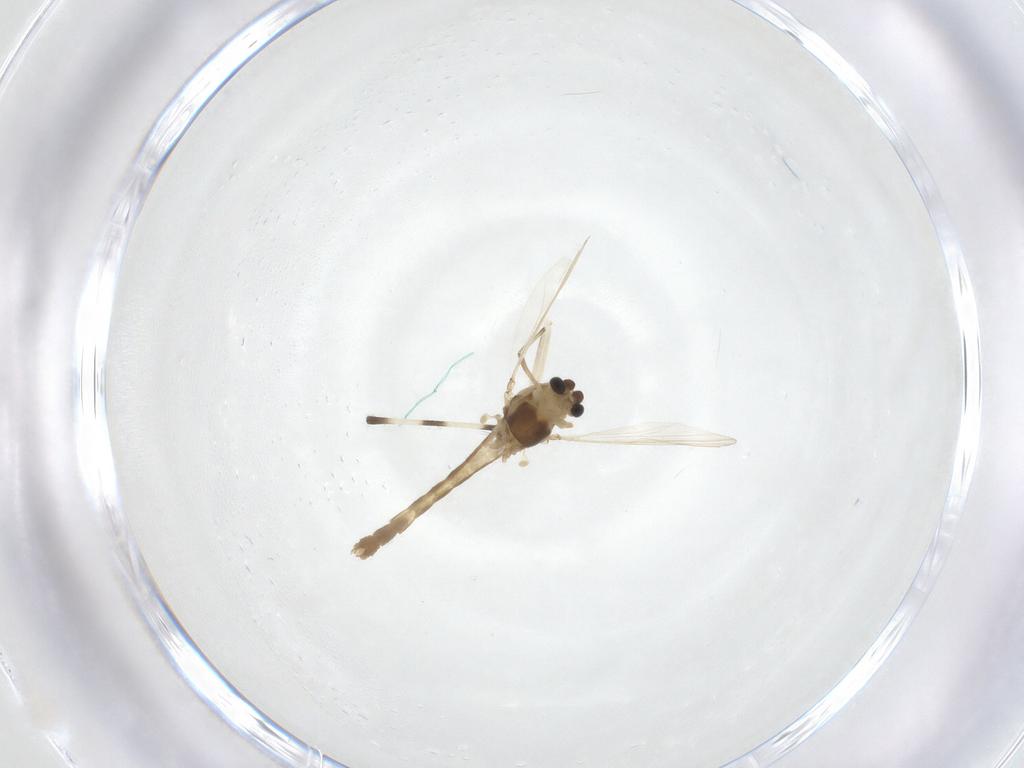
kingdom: Animalia
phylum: Arthropoda
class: Insecta
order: Diptera
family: Chironomidae
